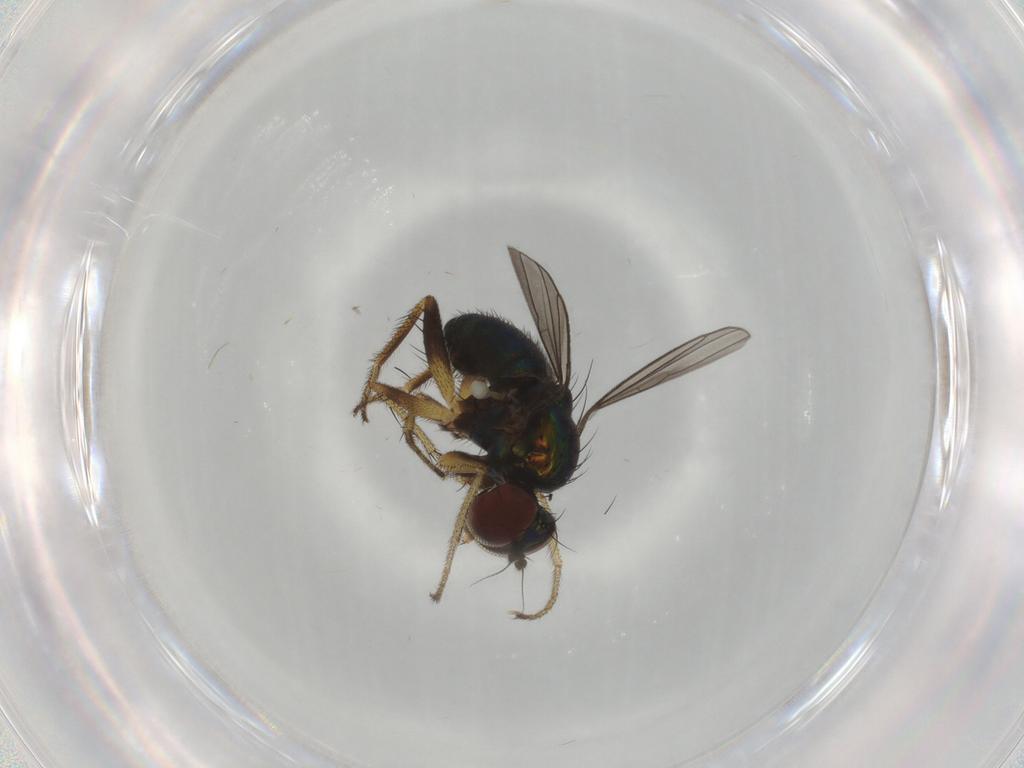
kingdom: Animalia
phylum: Arthropoda
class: Insecta
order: Diptera
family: Dolichopodidae
